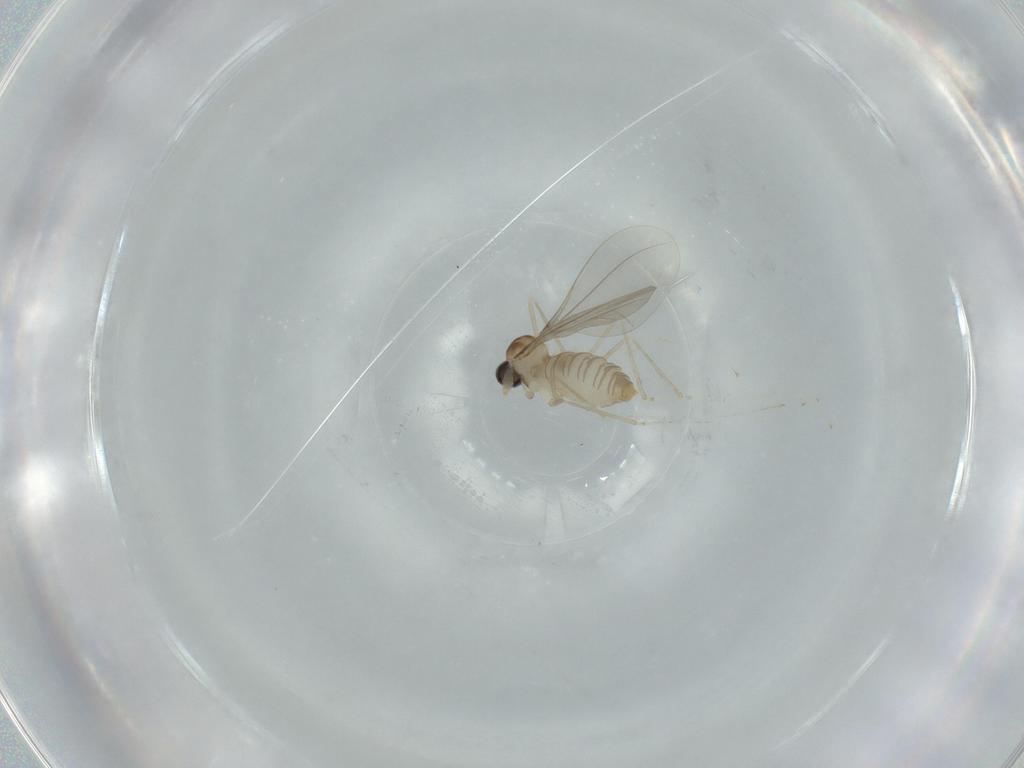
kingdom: Animalia
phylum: Arthropoda
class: Insecta
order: Diptera
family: Cecidomyiidae
